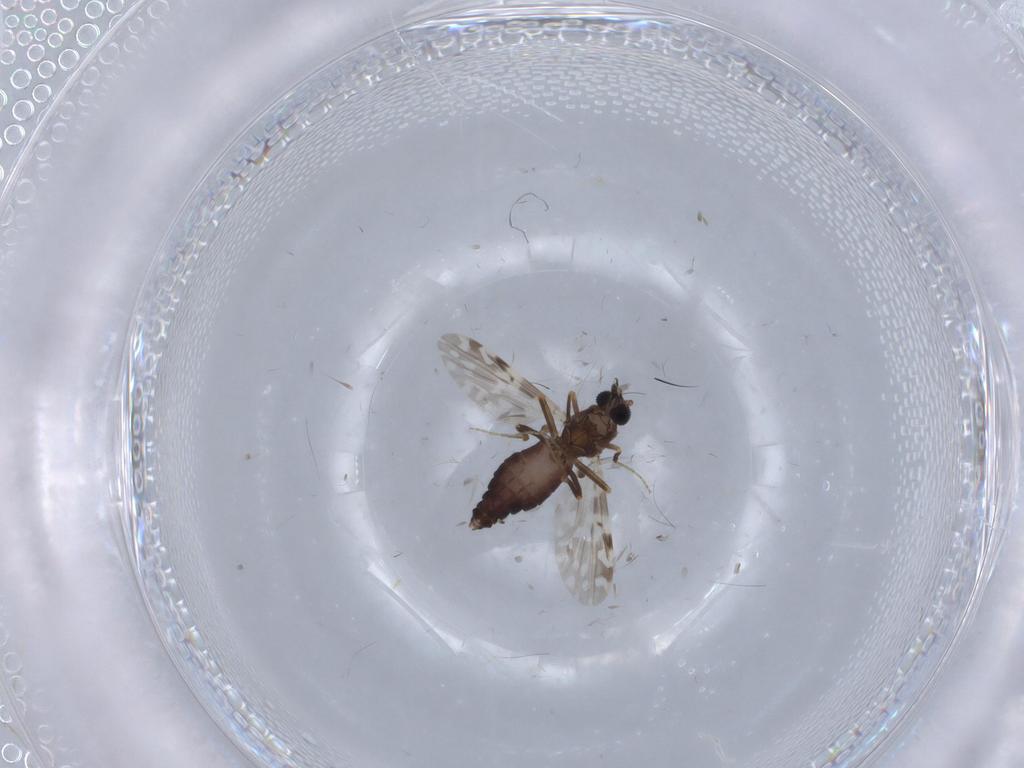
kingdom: Animalia
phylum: Arthropoda
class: Insecta
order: Diptera
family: Ceratopogonidae
